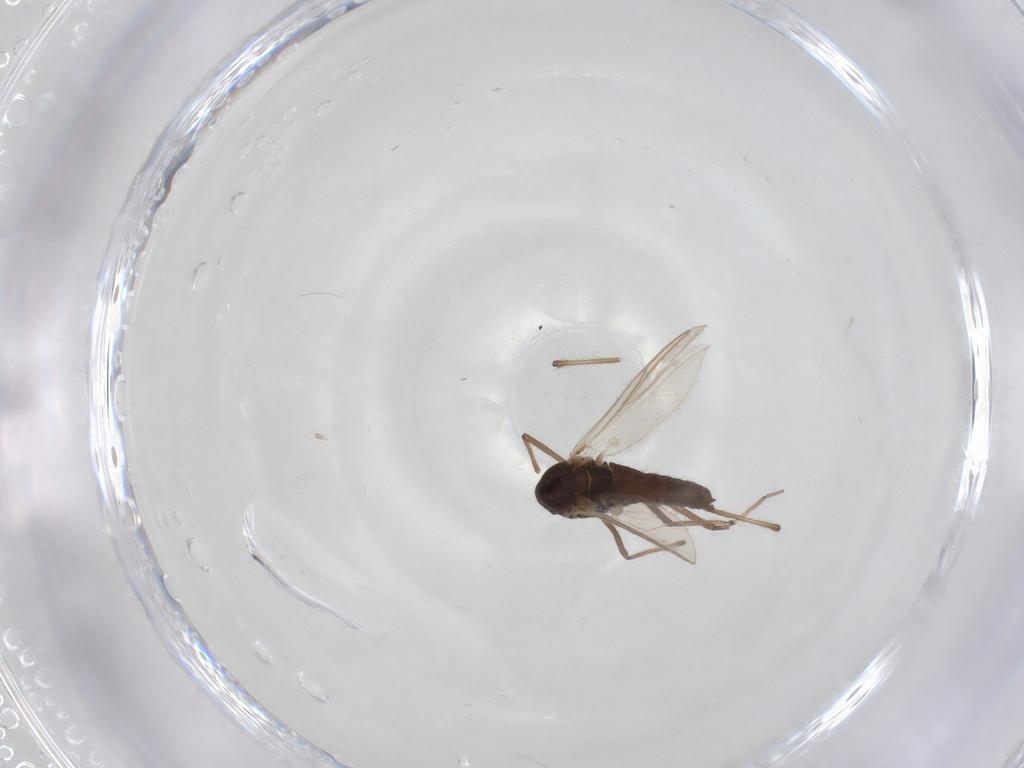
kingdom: Animalia
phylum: Arthropoda
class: Insecta
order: Diptera
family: Chironomidae
